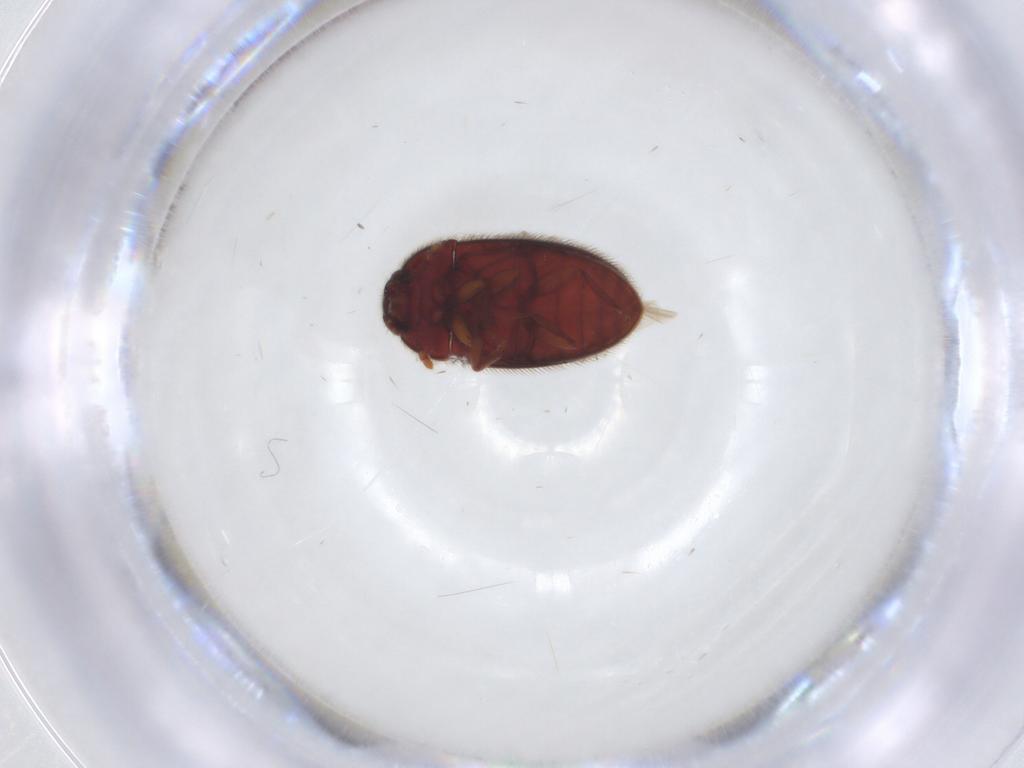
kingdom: Animalia
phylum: Arthropoda
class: Insecta
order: Coleoptera
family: Biphyllidae
